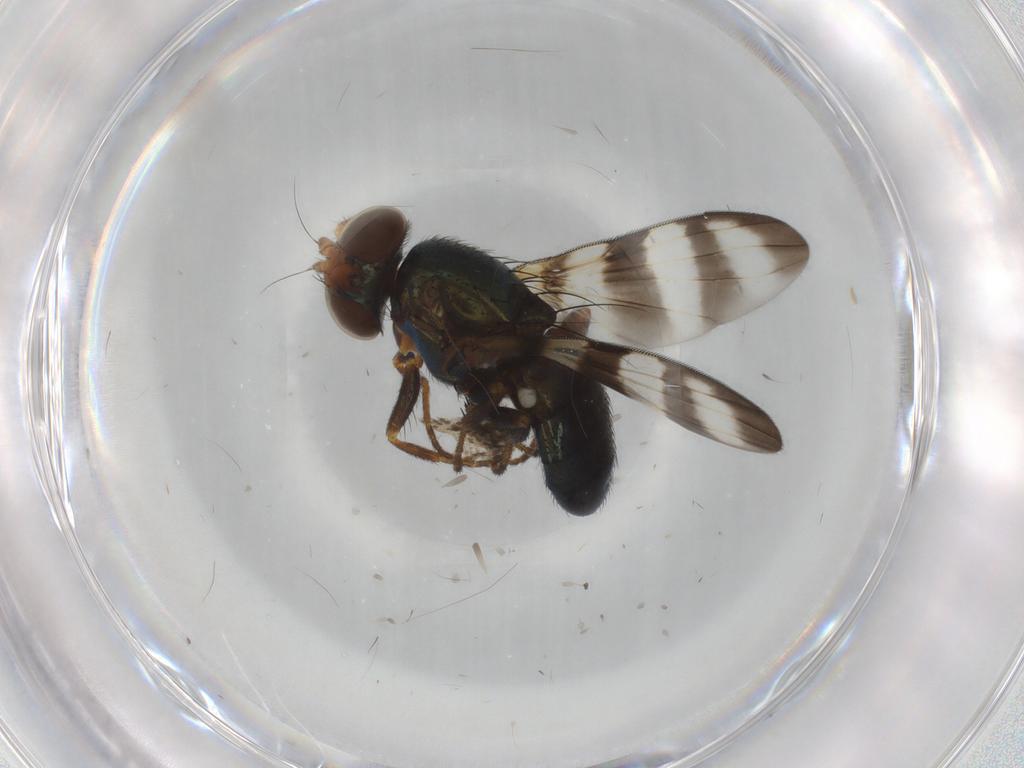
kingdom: Animalia
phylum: Arthropoda
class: Insecta
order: Diptera
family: Ulidiidae
